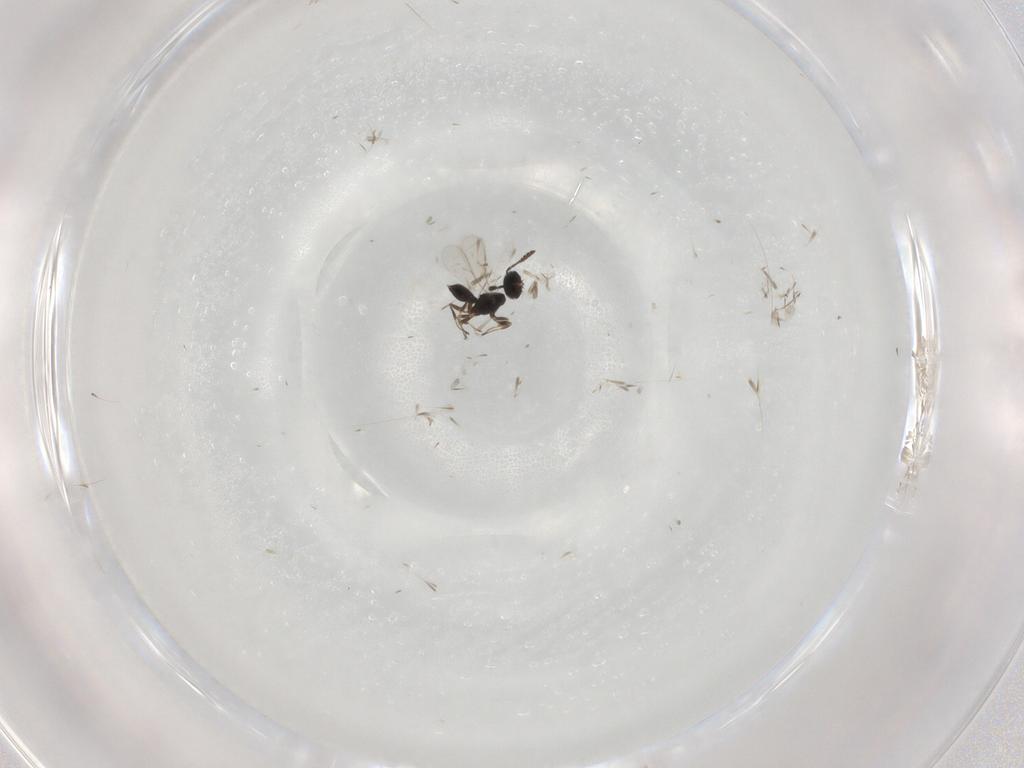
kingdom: Animalia
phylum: Arthropoda
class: Insecta
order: Hymenoptera
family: Scelionidae
